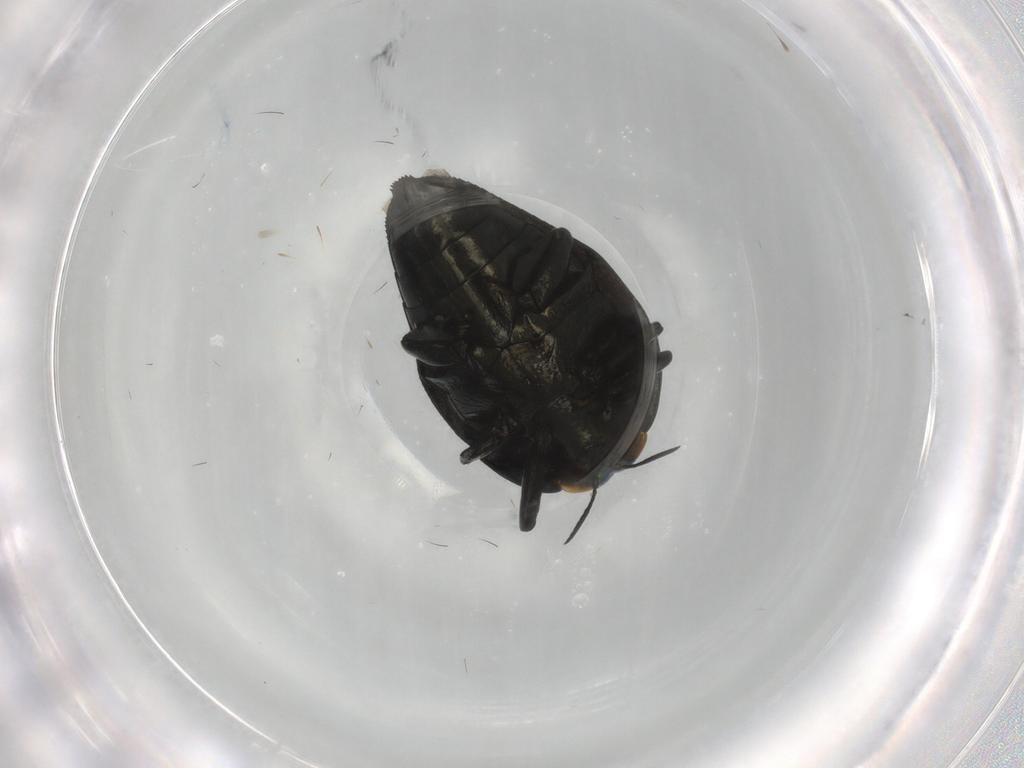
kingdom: Animalia
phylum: Arthropoda
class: Insecta
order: Coleoptera
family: Buprestidae
